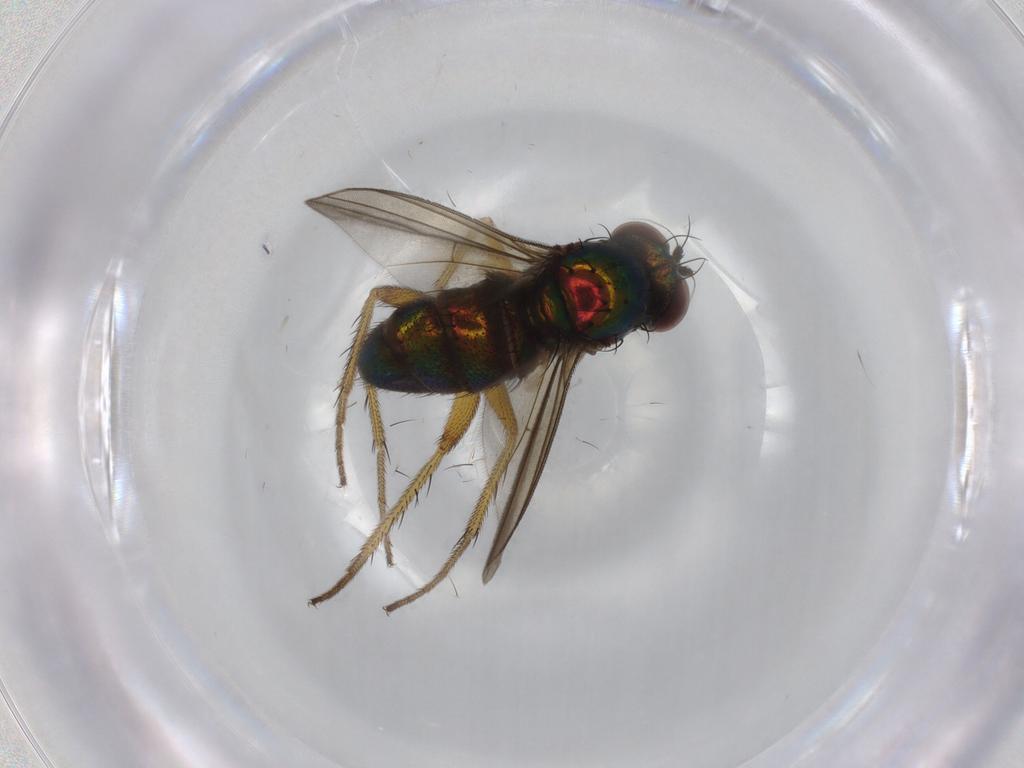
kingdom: Animalia
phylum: Arthropoda
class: Insecta
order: Diptera
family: Dolichopodidae
